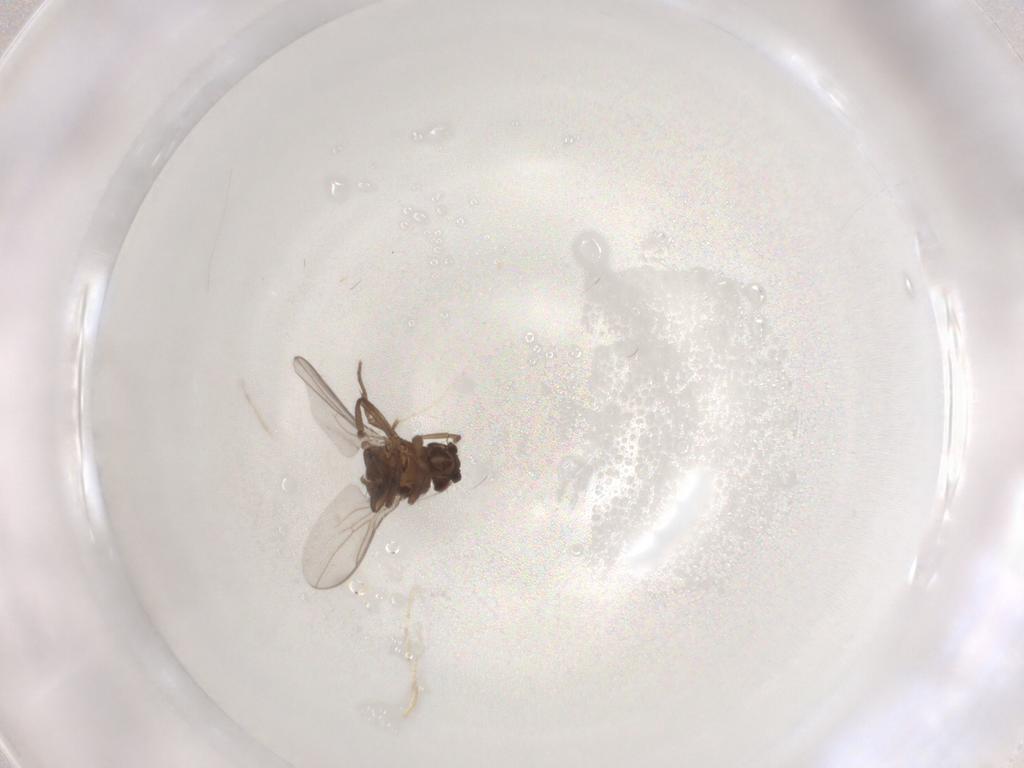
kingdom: Animalia
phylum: Arthropoda
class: Insecta
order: Diptera
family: Sphaeroceridae
